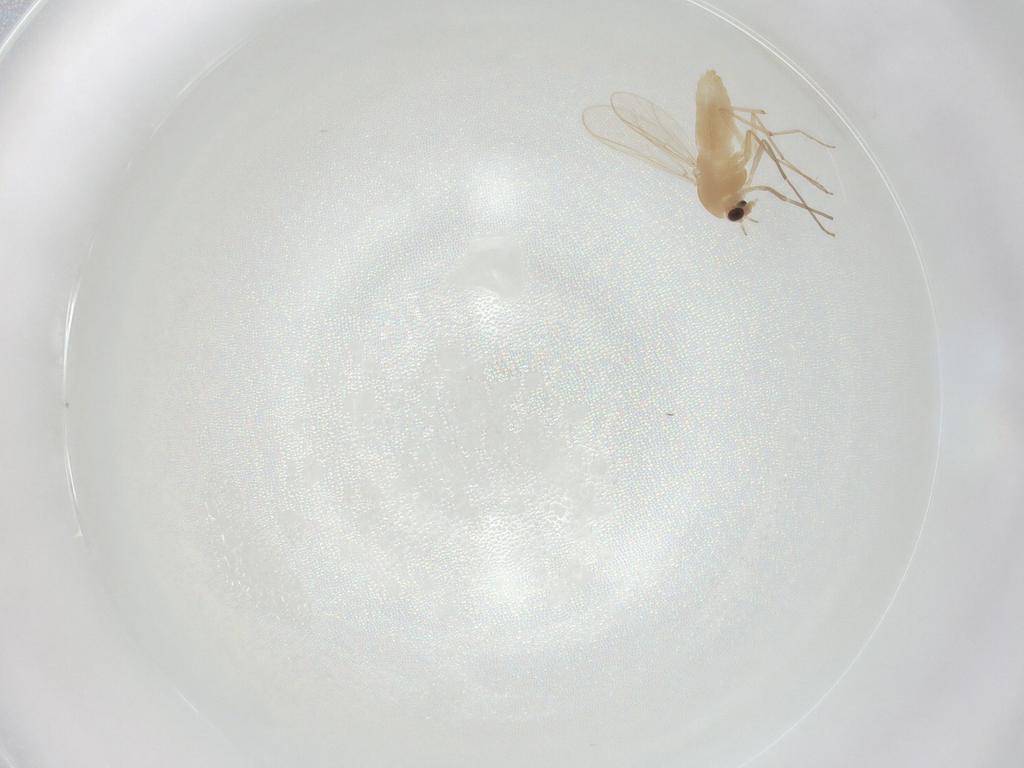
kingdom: Animalia
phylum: Arthropoda
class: Insecta
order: Diptera
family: Chironomidae
